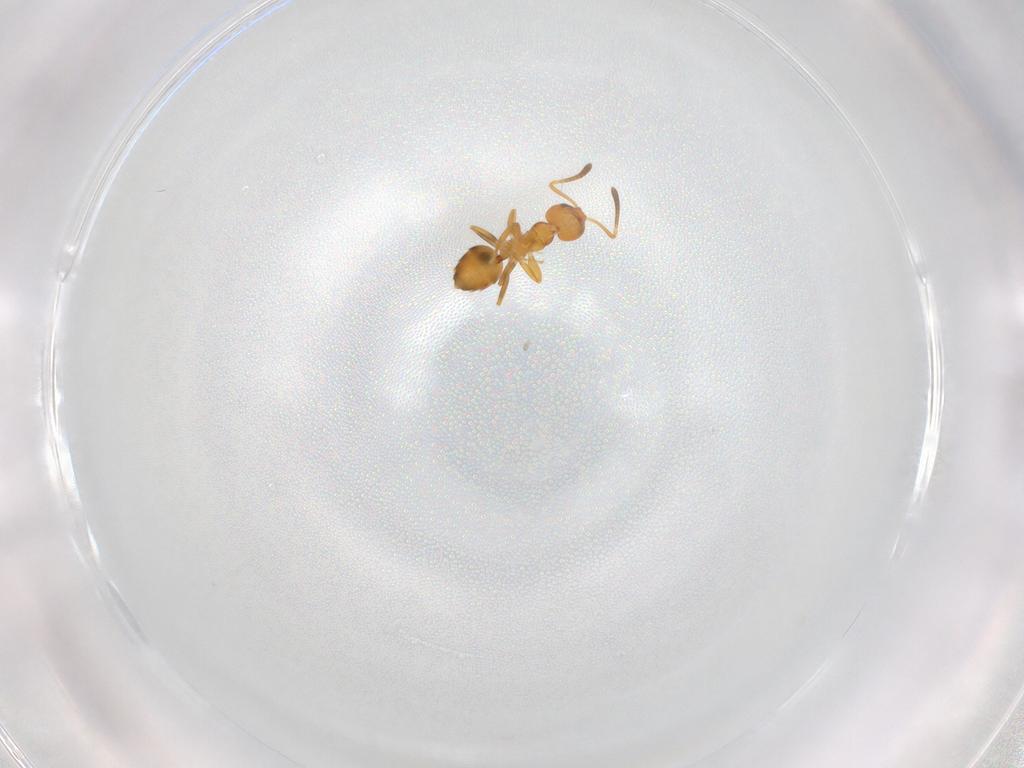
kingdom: Animalia
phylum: Arthropoda
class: Insecta
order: Hymenoptera
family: Formicidae
